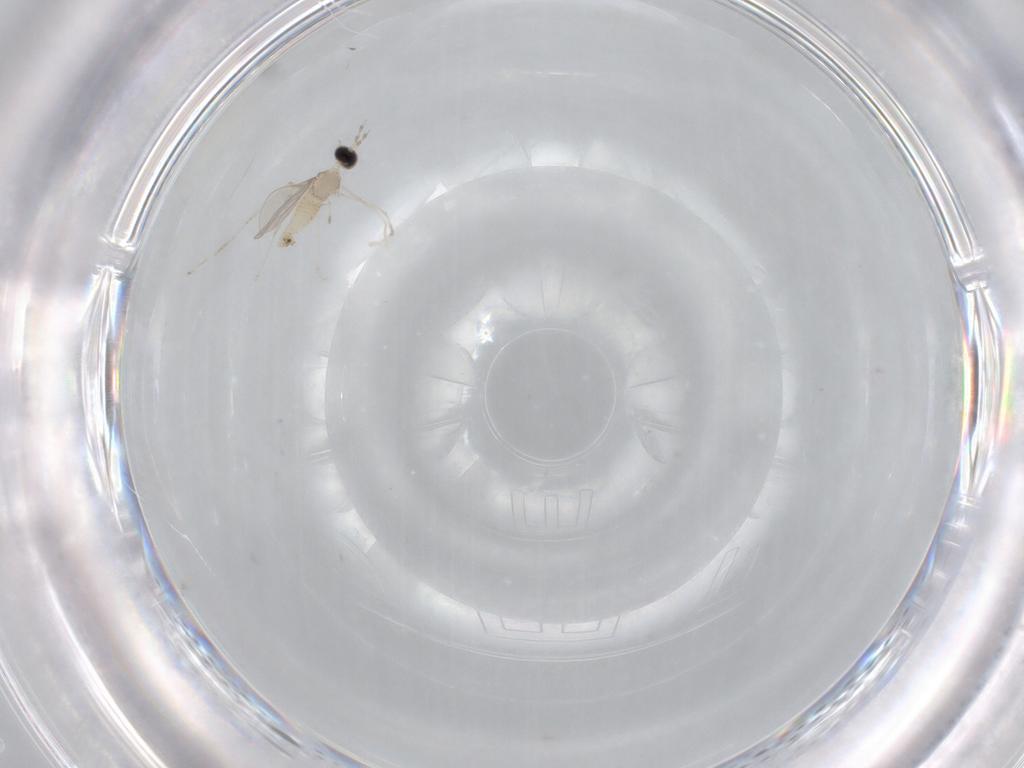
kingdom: Animalia
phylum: Arthropoda
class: Insecta
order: Diptera
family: Cecidomyiidae
